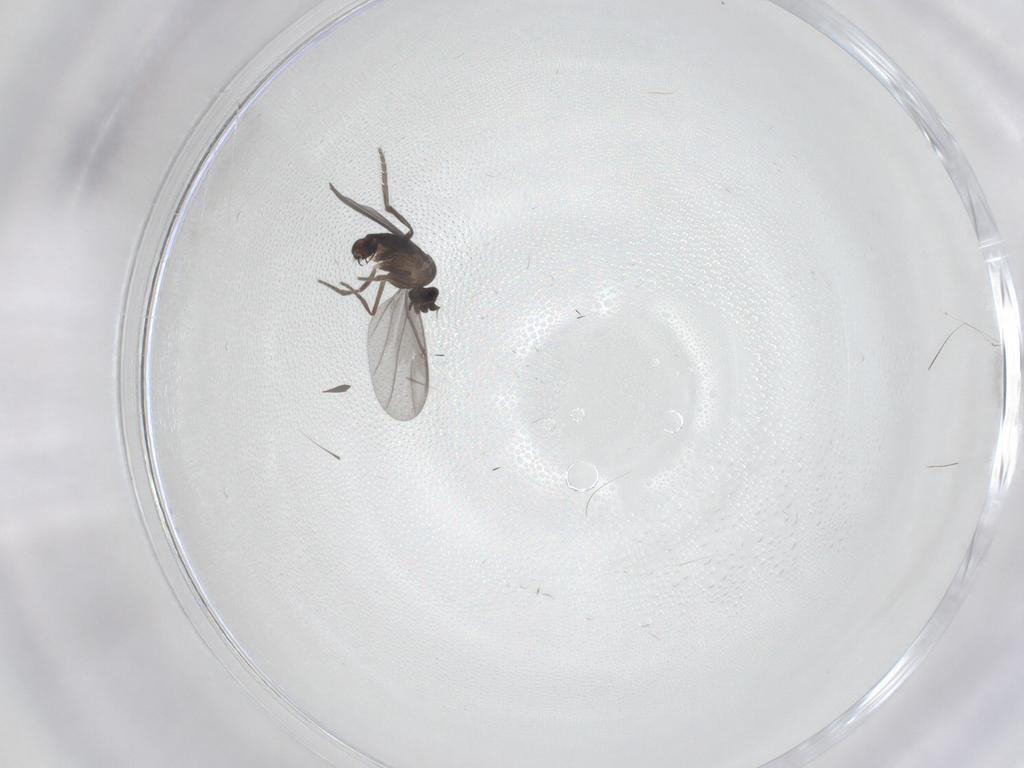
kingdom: Animalia
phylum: Arthropoda
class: Insecta
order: Diptera
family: Phoridae
